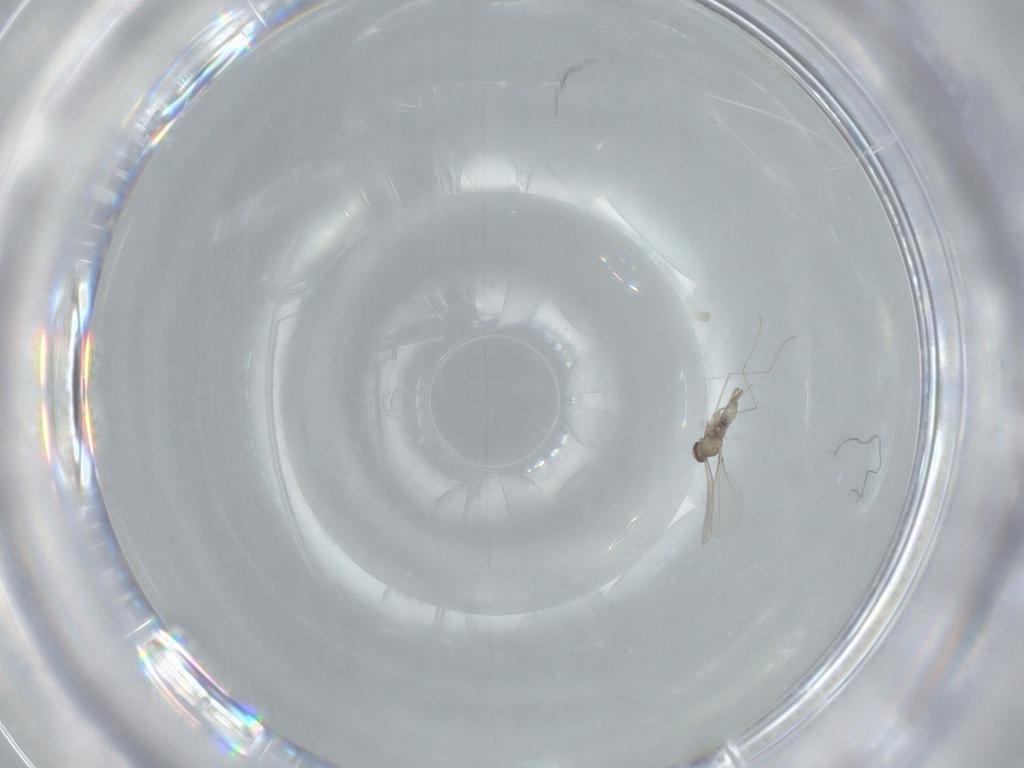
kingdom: Animalia
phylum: Arthropoda
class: Insecta
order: Diptera
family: Cecidomyiidae
